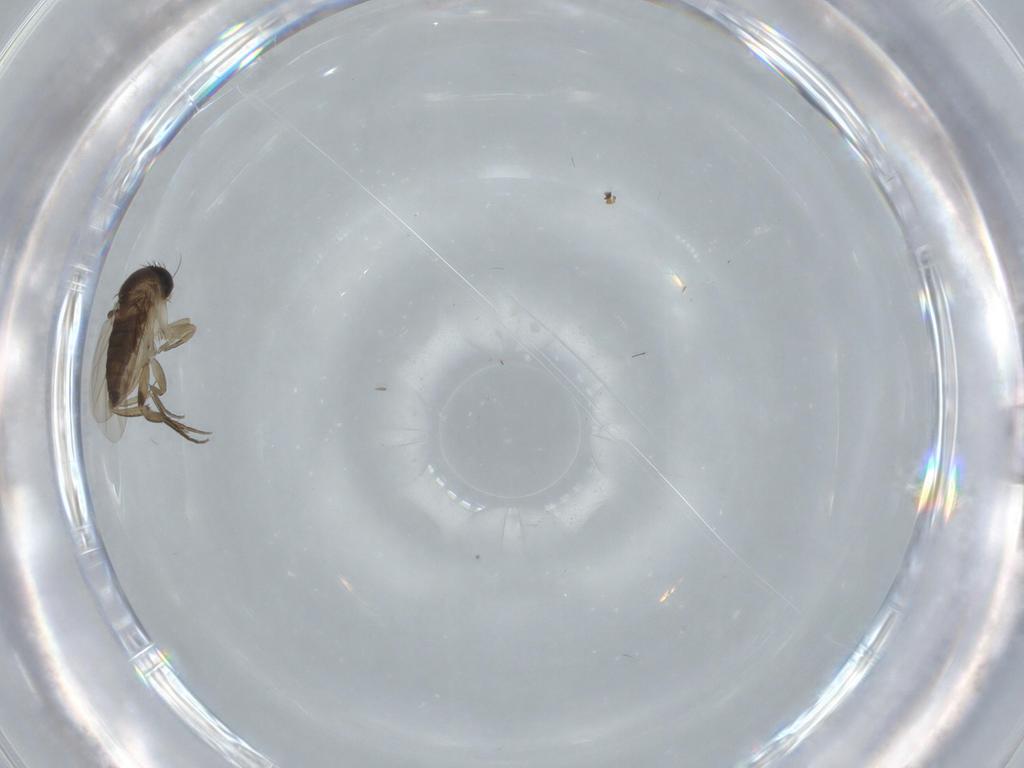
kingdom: Animalia
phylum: Arthropoda
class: Insecta
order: Diptera
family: Phoridae
